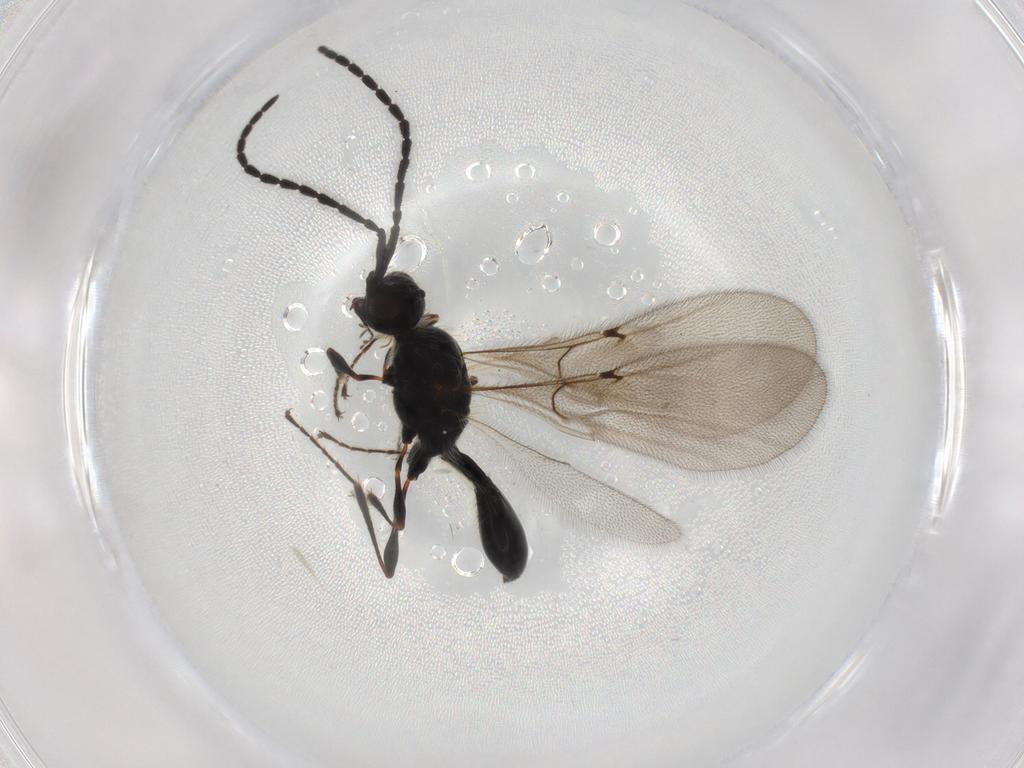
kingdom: Animalia
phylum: Arthropoda
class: Insecta
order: Hymenoptera
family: Diapriidae
